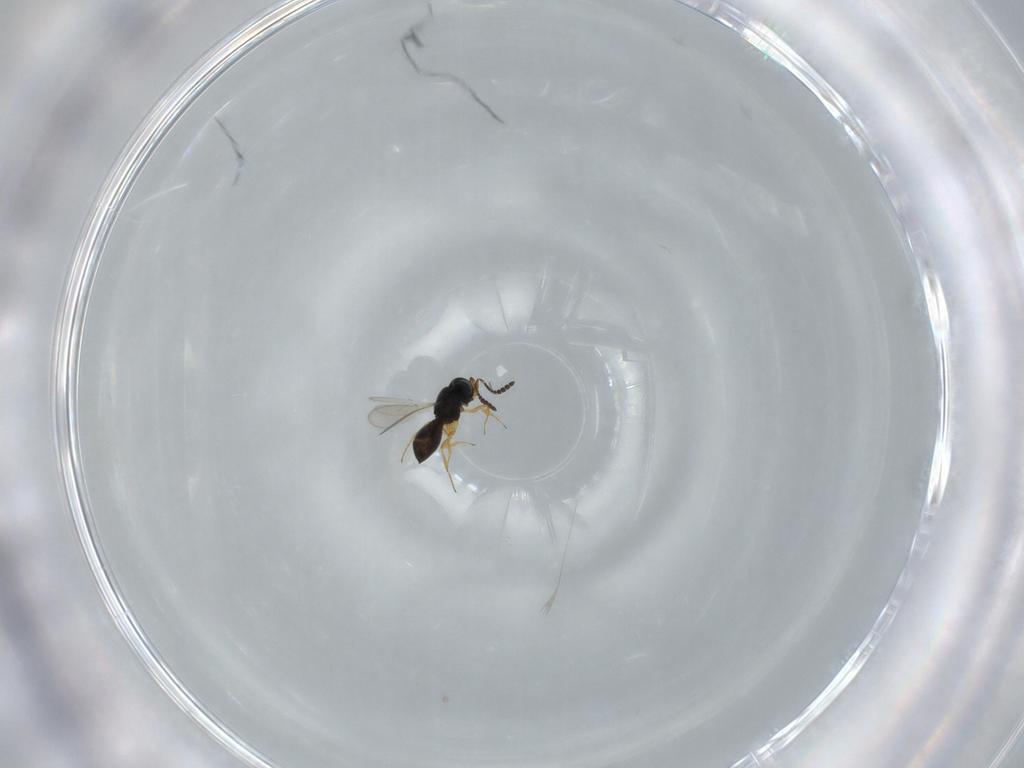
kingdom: Animalia
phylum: Arthropoda
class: Insecta
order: Hymenoptera
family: Scelionidae
